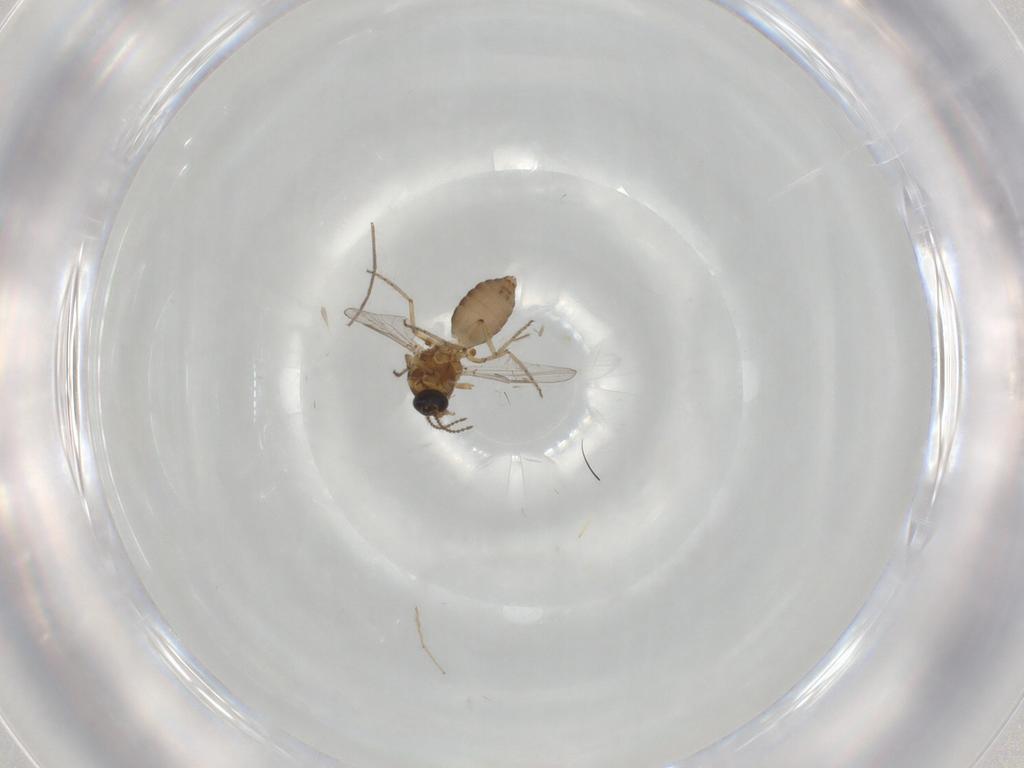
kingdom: Animalia
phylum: Arthropoda
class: Insecta
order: Diptera
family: Ceratopogonidae
